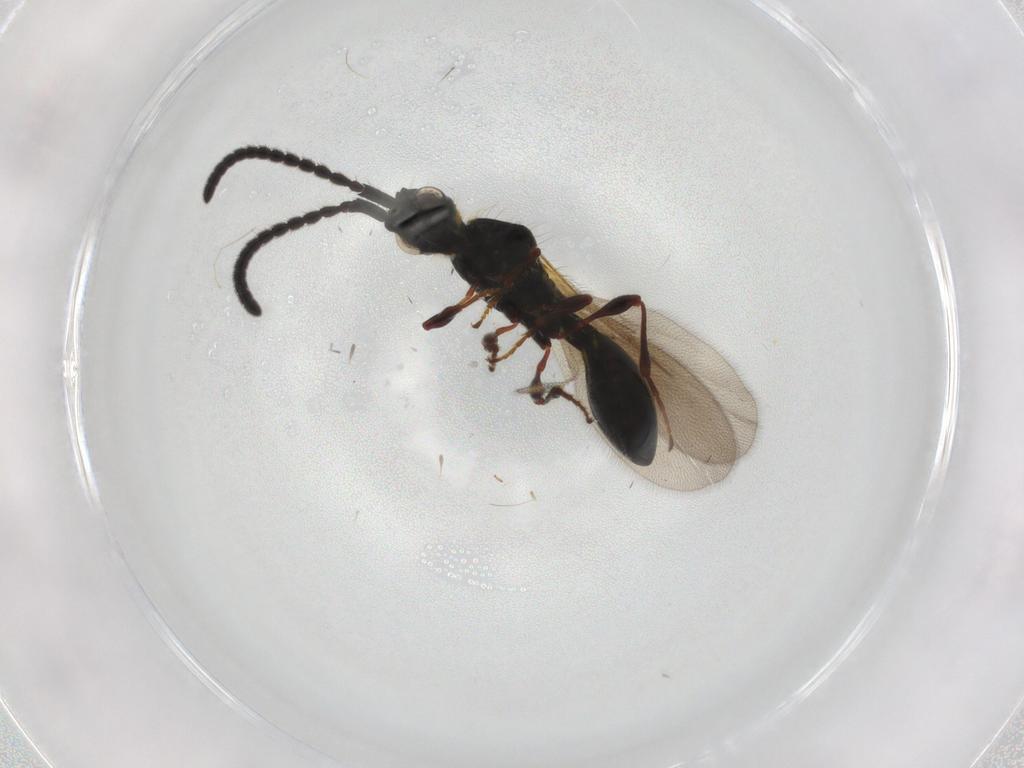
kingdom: Animalia
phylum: Arthropoda
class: Insecta
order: Hymenoptera
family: Diapriidae
